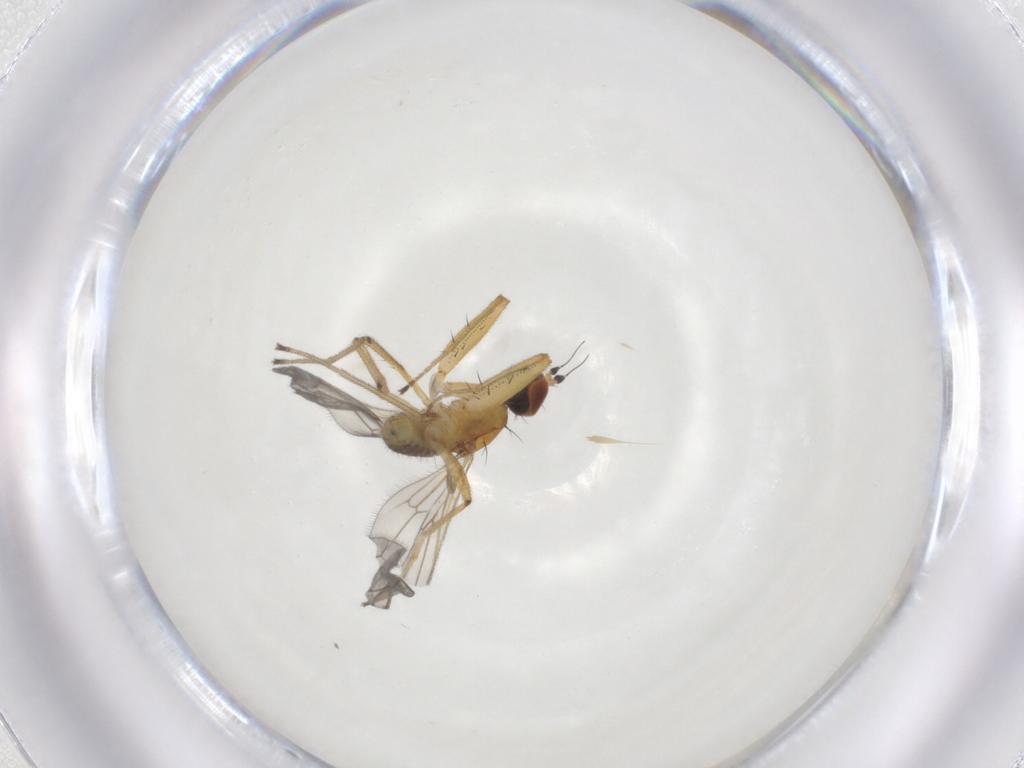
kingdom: Animalia
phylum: Arthropoda
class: Insecta
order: Diptera
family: Empididae
